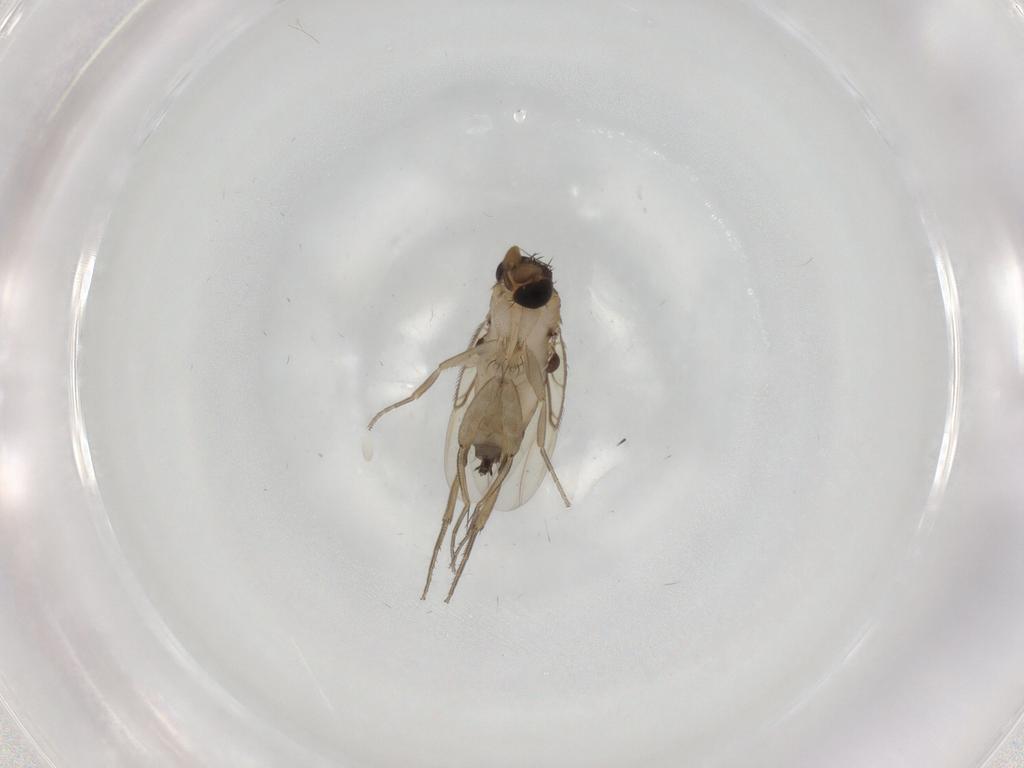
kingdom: Animalia
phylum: Arthropoda
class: Insecta
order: Diptera
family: Phoridae
